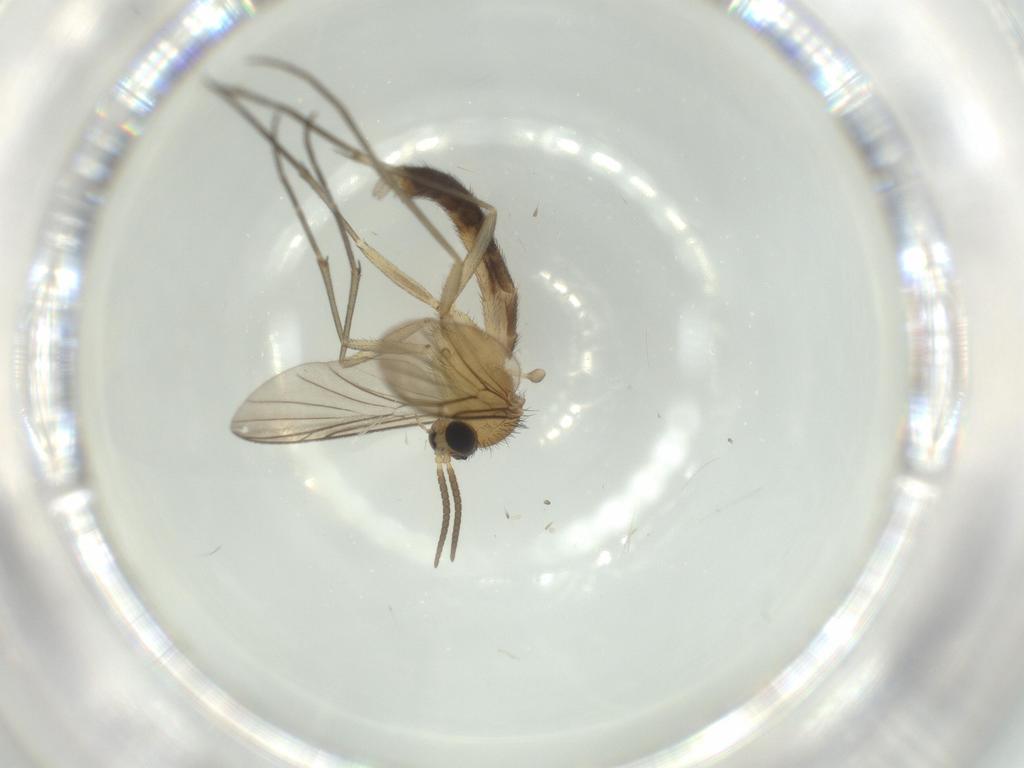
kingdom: Animalia
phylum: Arthropoda
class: Insecta
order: Diptera
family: Keroplatidae
